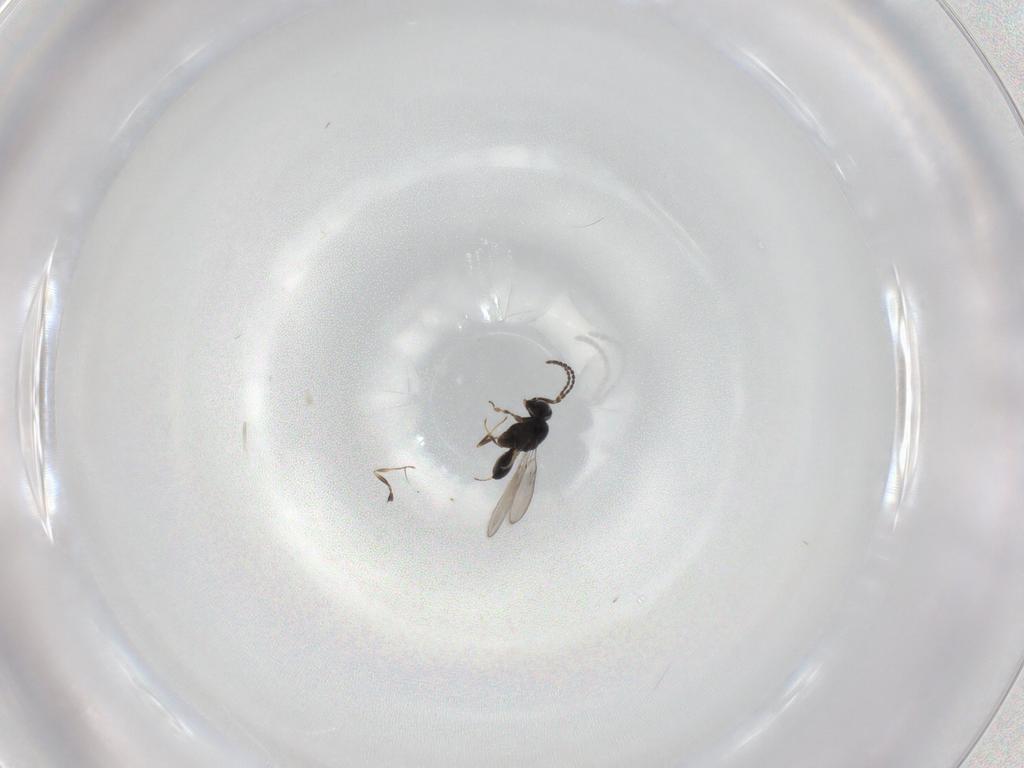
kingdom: Animalia
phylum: Arthropoda
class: Insecta
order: Hymenoptera
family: Scelionidae
